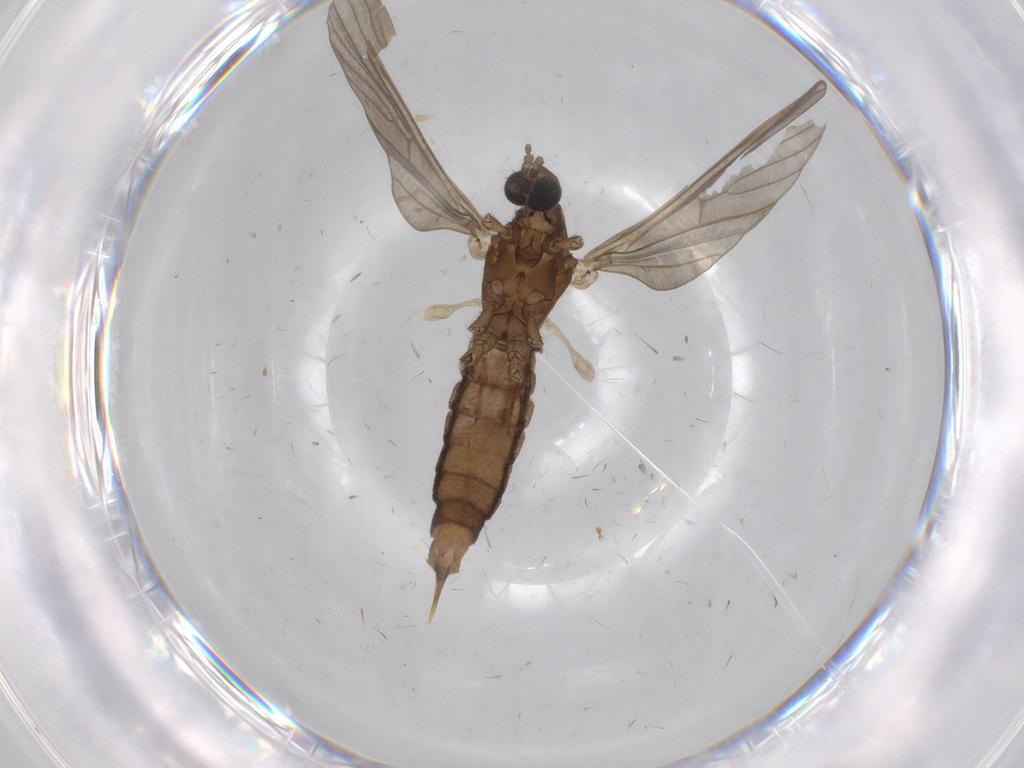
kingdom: Animalia
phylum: Arthropoda
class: Insecta
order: Diptera
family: Limoniidae
